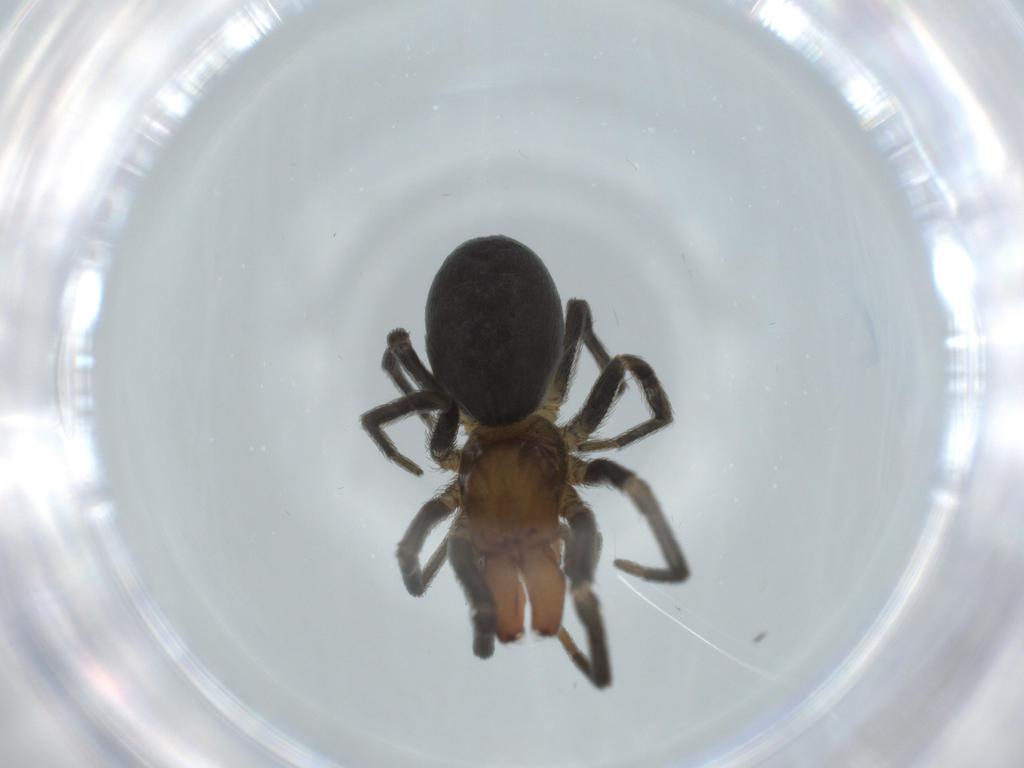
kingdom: Animalia
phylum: Arthropoda
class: Arachnida
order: Araneae
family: Dictynidae
